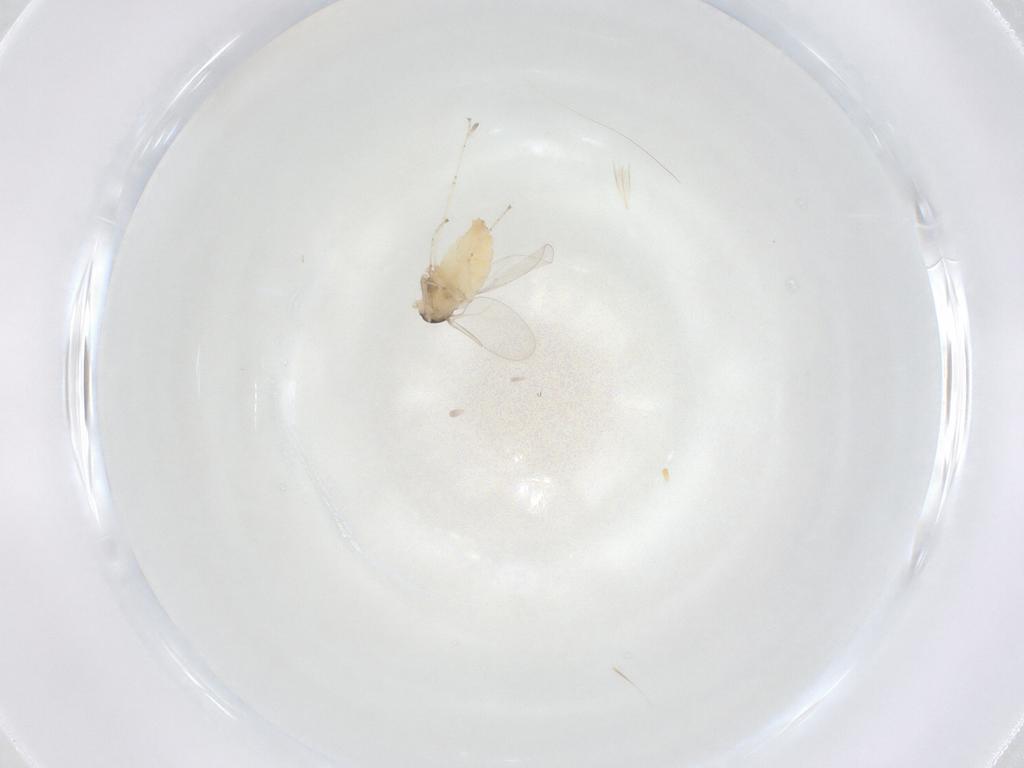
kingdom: Animalia
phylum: Arthropoda
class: Insecta
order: Diptera
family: Cecidomyiidae
